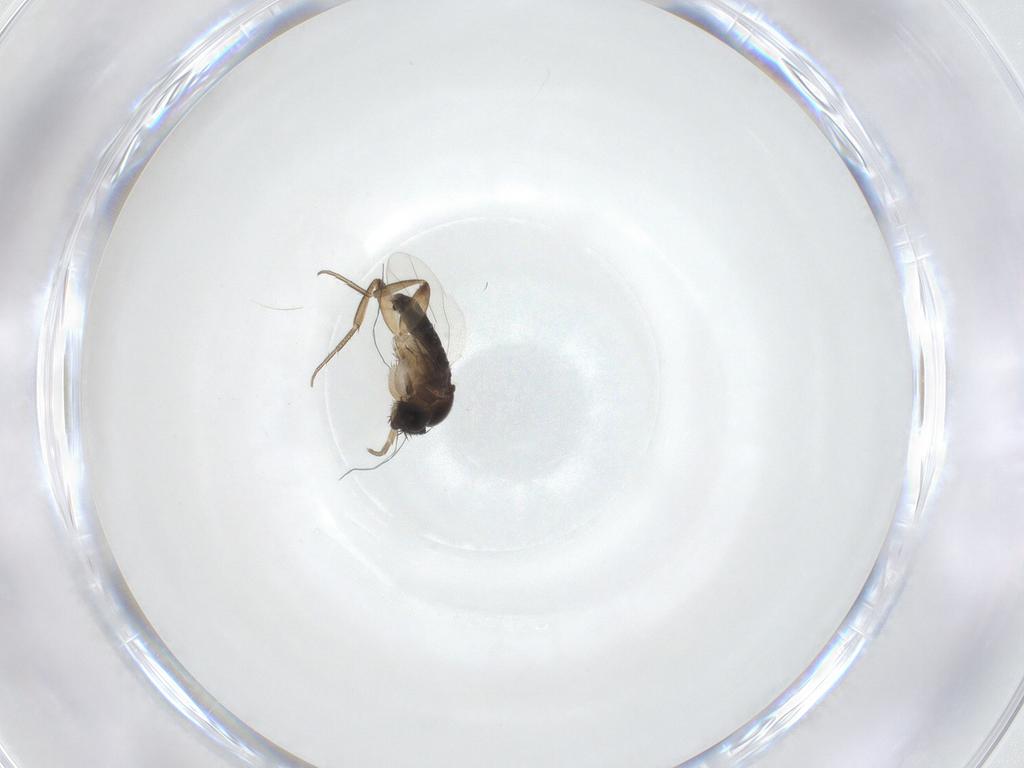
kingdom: Animalia
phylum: Arthropoda
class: Insecta
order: Diptera
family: Phoridae
